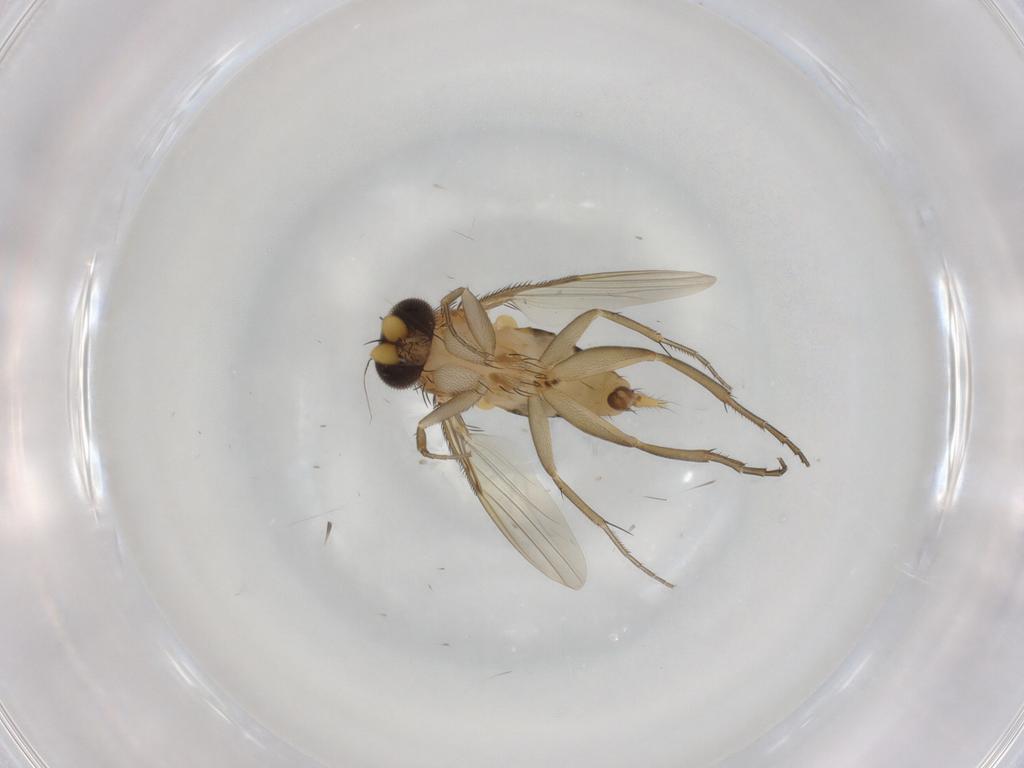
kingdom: Animalia
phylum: Arthropoda
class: Insecta
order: Diptera
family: Phoridae
